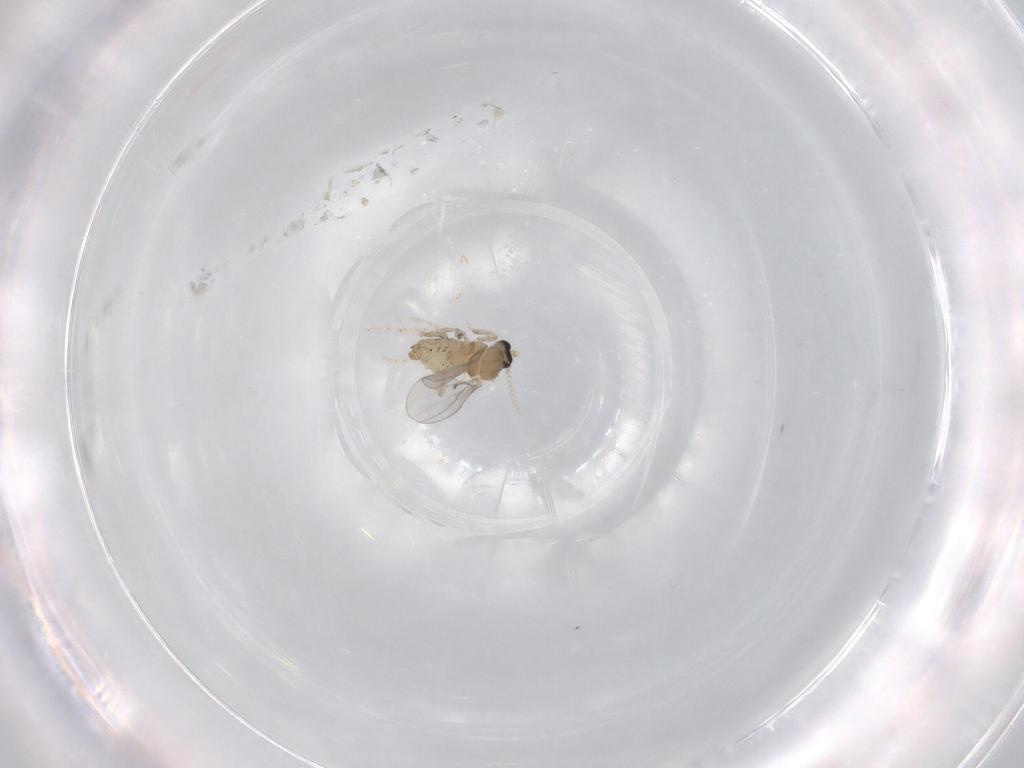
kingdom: Animalia
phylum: Arthropoda
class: Insecta
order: Diptera
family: Cecidomyiidae
